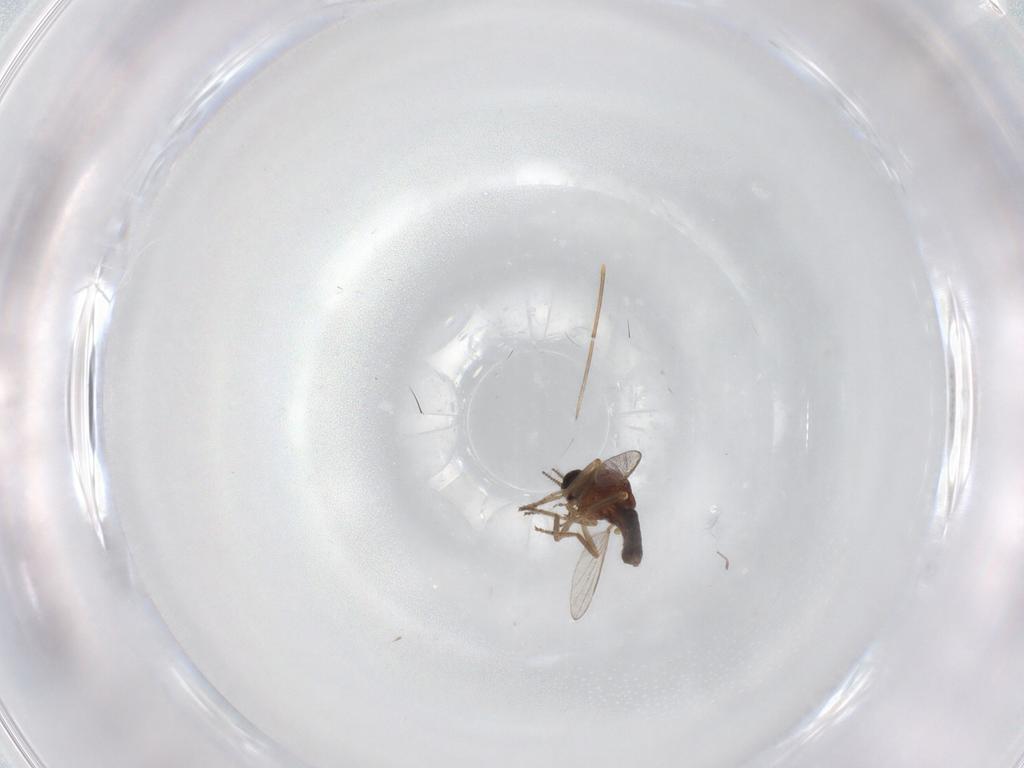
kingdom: Animalia
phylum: Arthropoda
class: Insecta
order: Diptera
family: Ceratopogonidae
